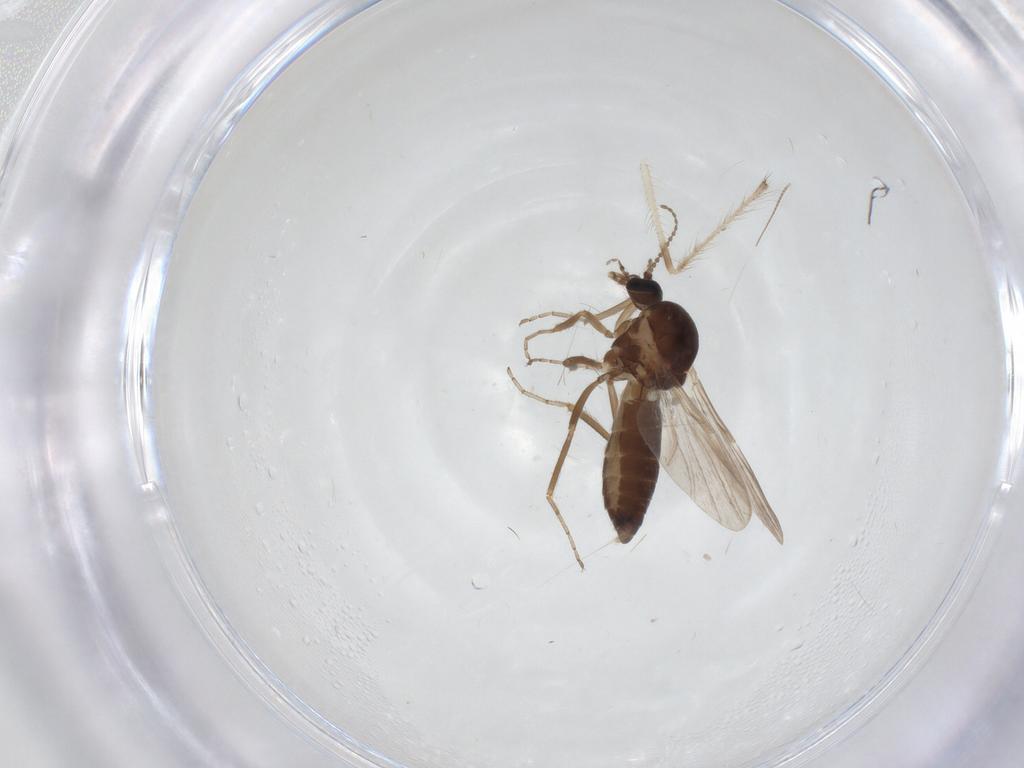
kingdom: Animalia
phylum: Arthropoda
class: Insecta
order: Diptera
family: Ceratopogonidae
